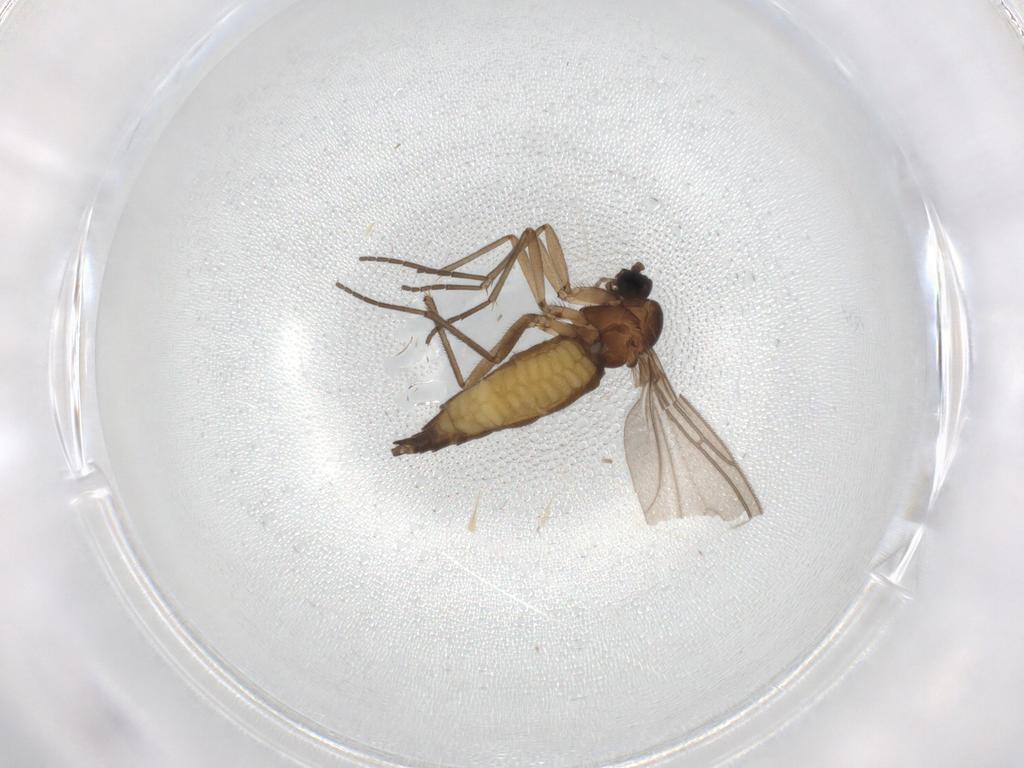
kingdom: Animalia
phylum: Arthropoda
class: Insecta
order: Diptera
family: Sciaridae
